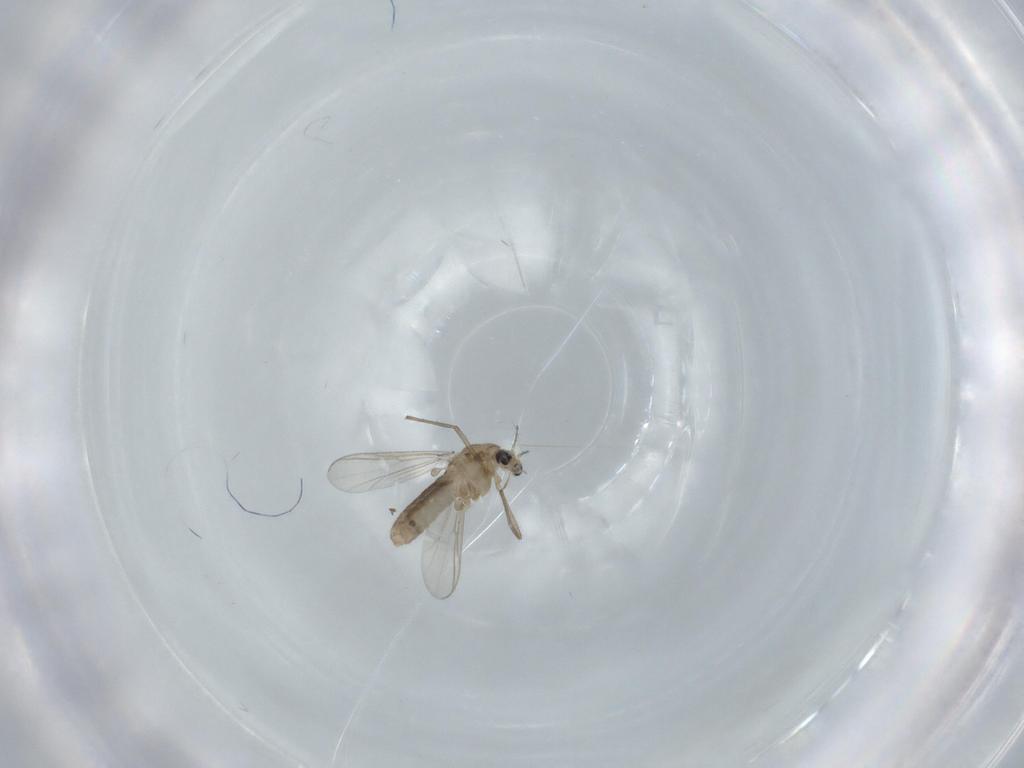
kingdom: Animalia
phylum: Arthropoda
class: Insecta
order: Diptera
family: Chironomidae
